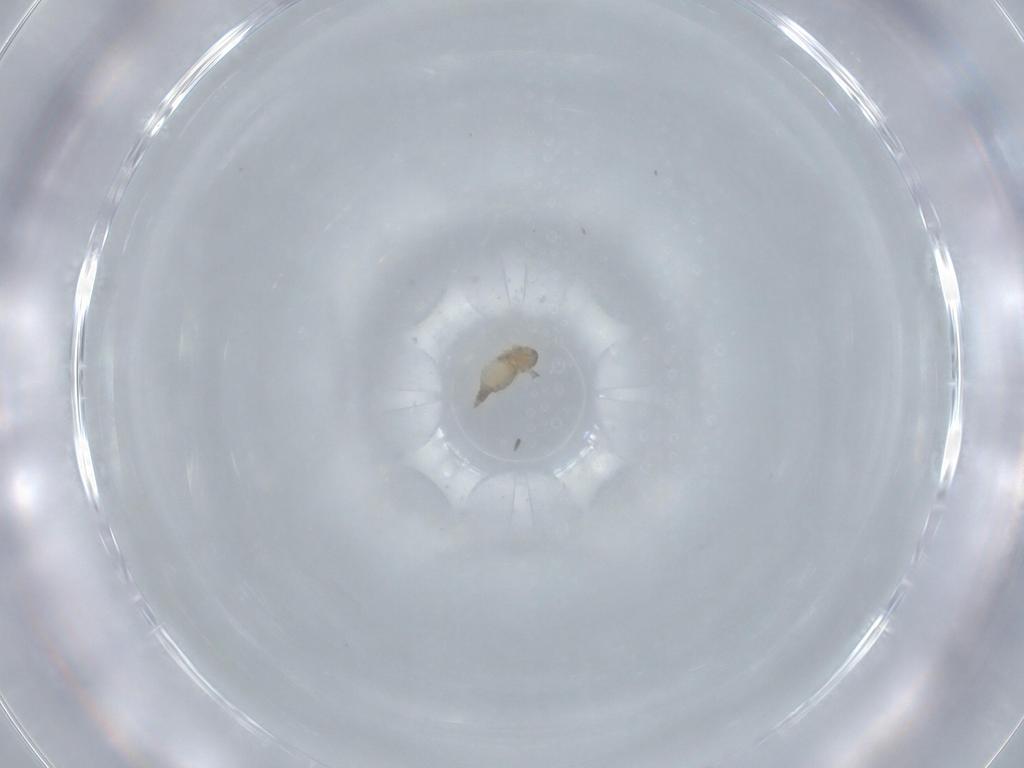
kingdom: Animalia
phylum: Arthropoda
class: Insecta
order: Diptera
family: Cecidomyiidae
